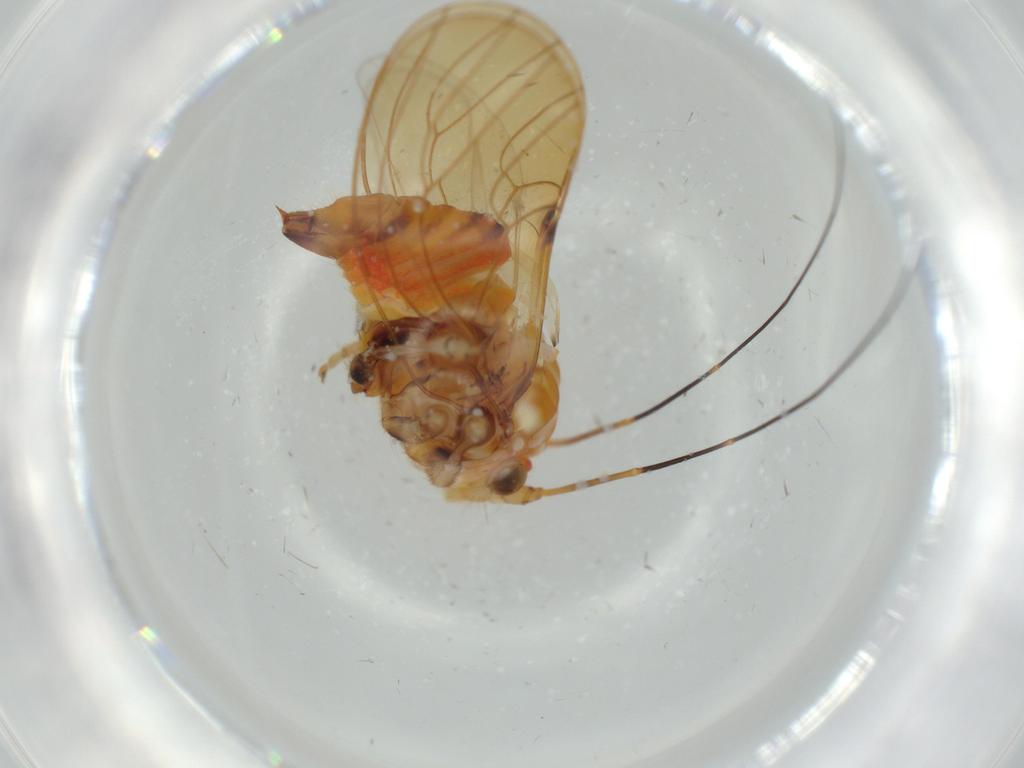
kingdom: Animalia
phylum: Arthropoda
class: Insecta
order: Hemiptera
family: Psyllidae
